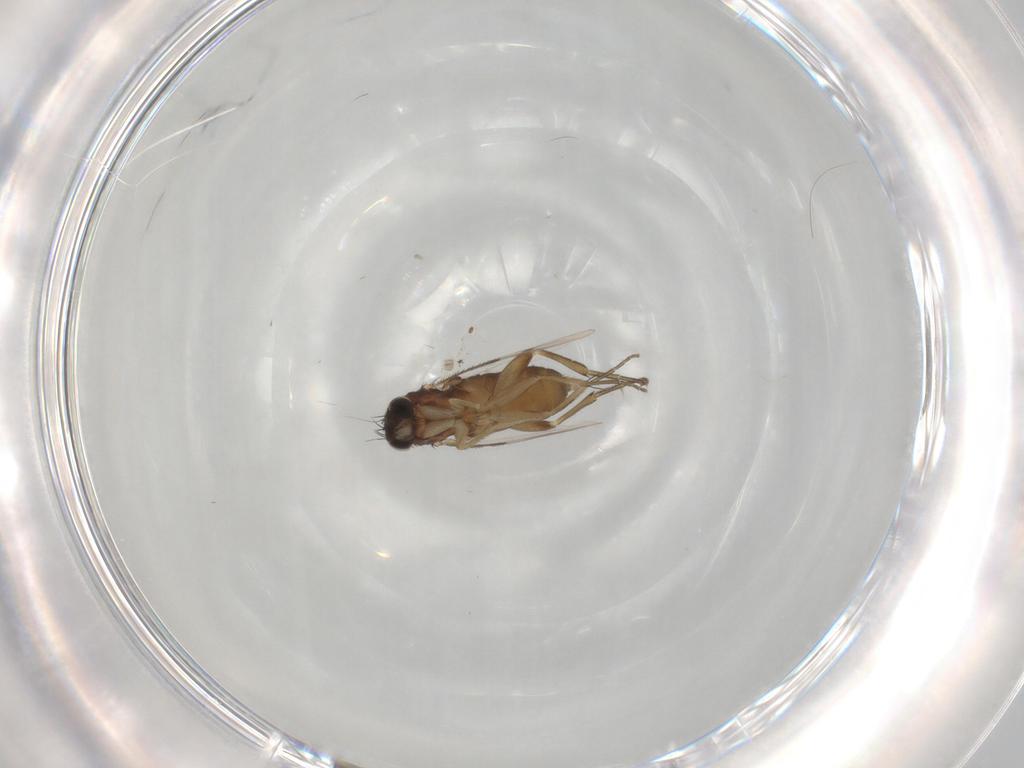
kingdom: Animalia
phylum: Arthropoda
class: Insecta
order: Diptera
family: Phoridae
